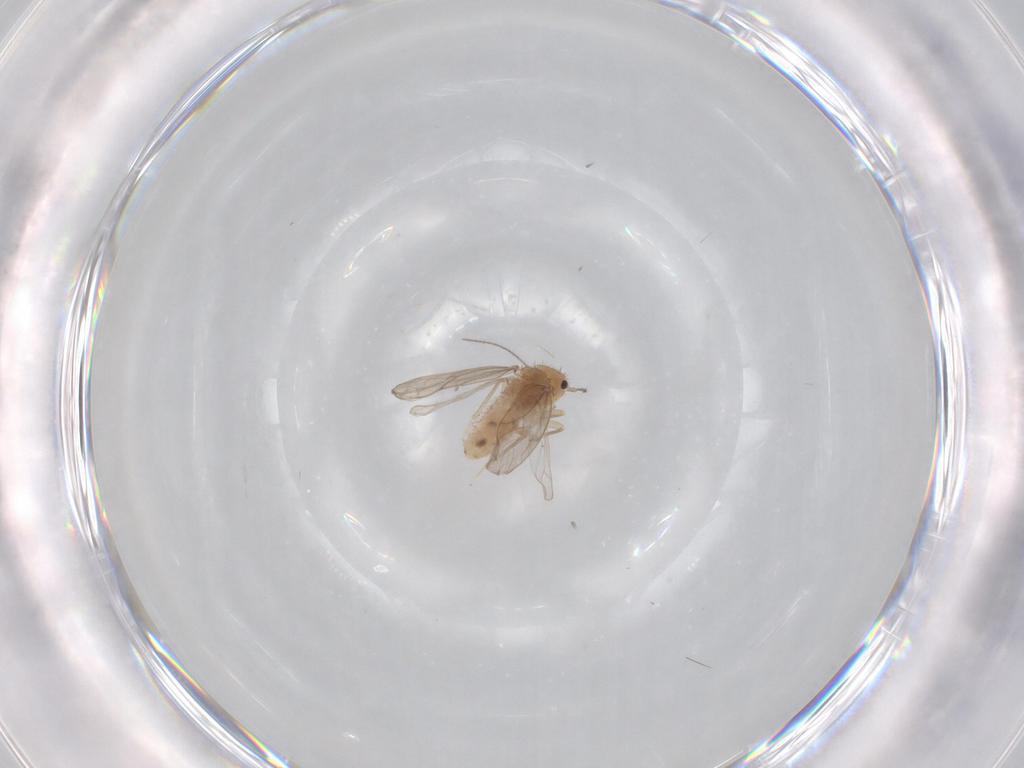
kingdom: Animalia
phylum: Arthropoda
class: Insecta
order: Psocodea
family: Ectopsocidae
